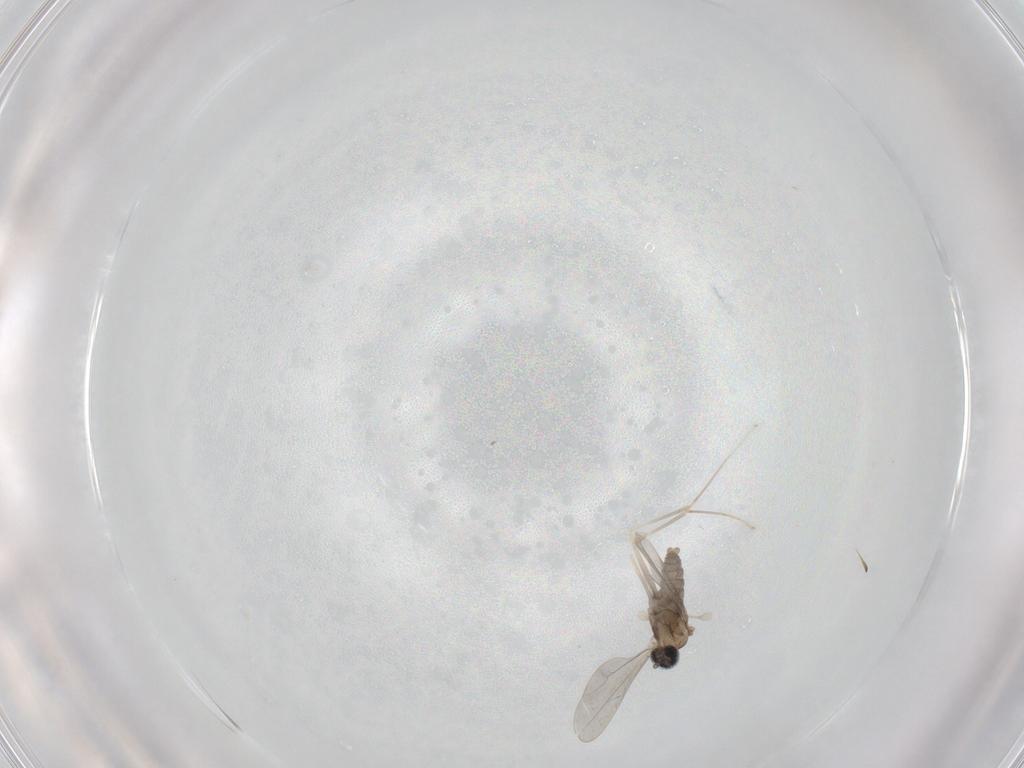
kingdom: Animalia
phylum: Arthropoda
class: Insecta
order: Diptera
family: Cecidomyiidae
